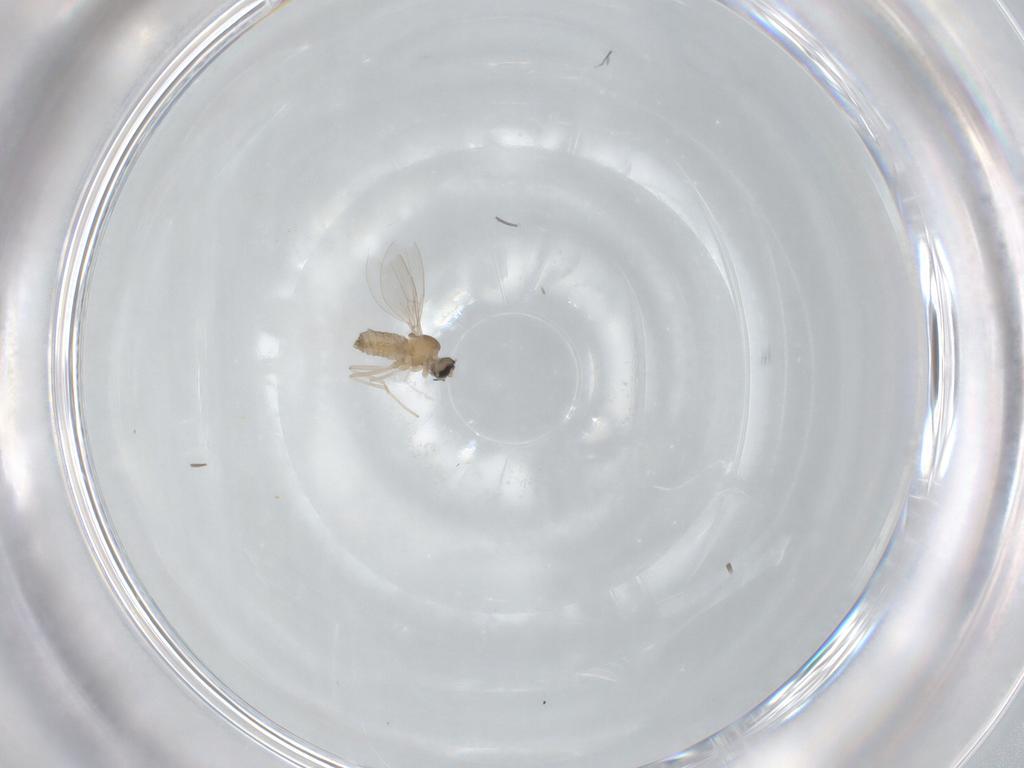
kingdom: Animalia
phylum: Arthropoda
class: Insecta
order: Diptera
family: Cecidomyiidae
